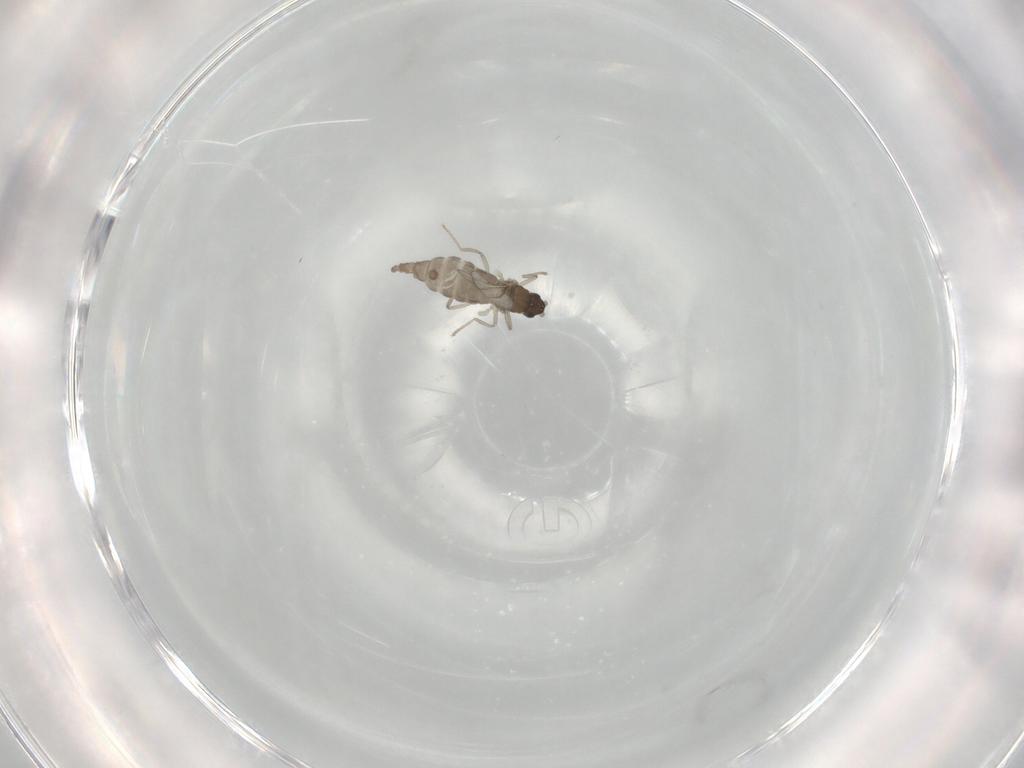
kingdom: Animalia
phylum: Arthropoda
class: Insecta
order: Diptera
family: Cecidomyiidae
